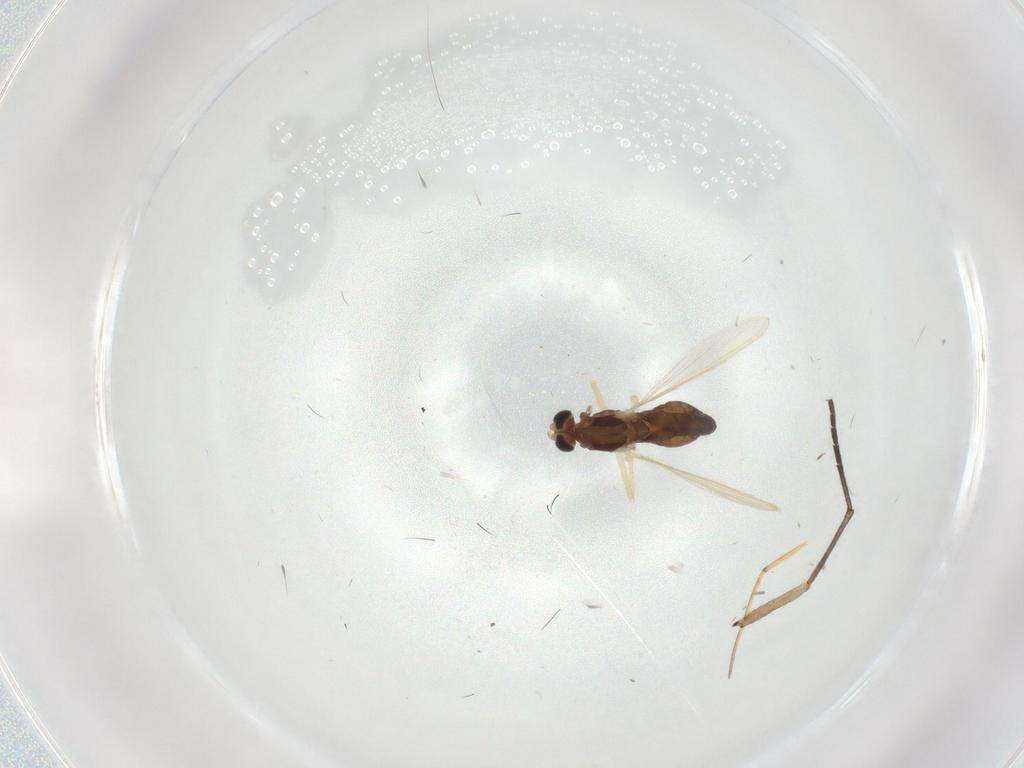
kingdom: Animalia
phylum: Arthropoda
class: Insecta
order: Diptera
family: Chironomidae
